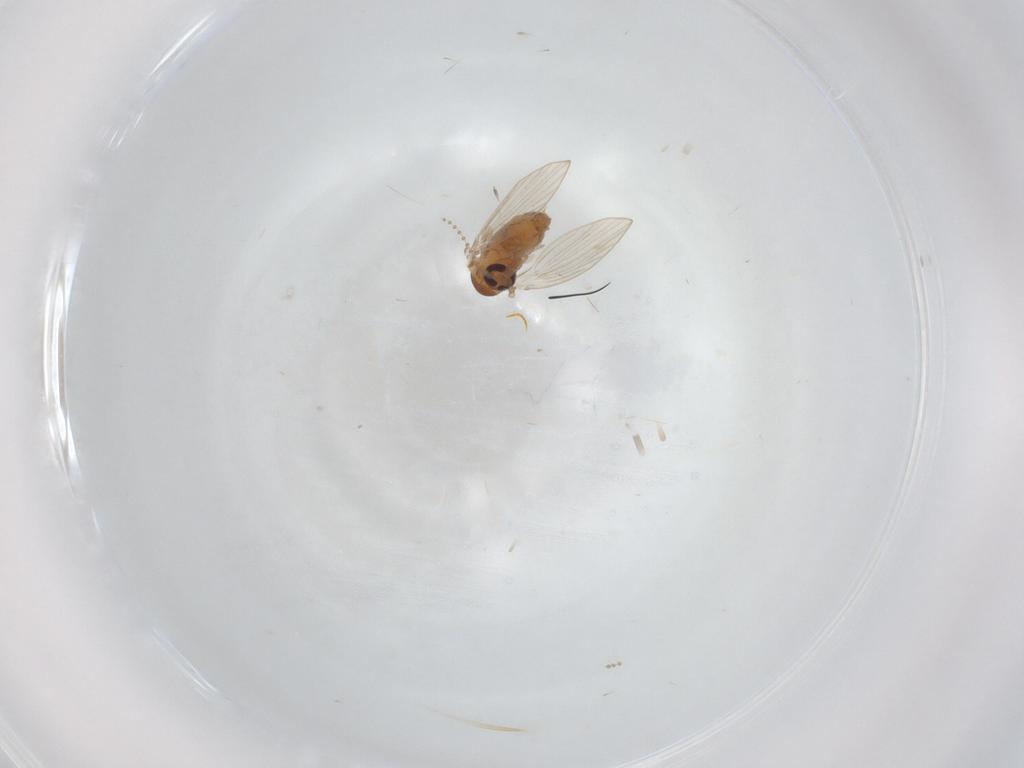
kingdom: Animalia
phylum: Arthropoda
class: Insecta
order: Diptera
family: Psychodidae
